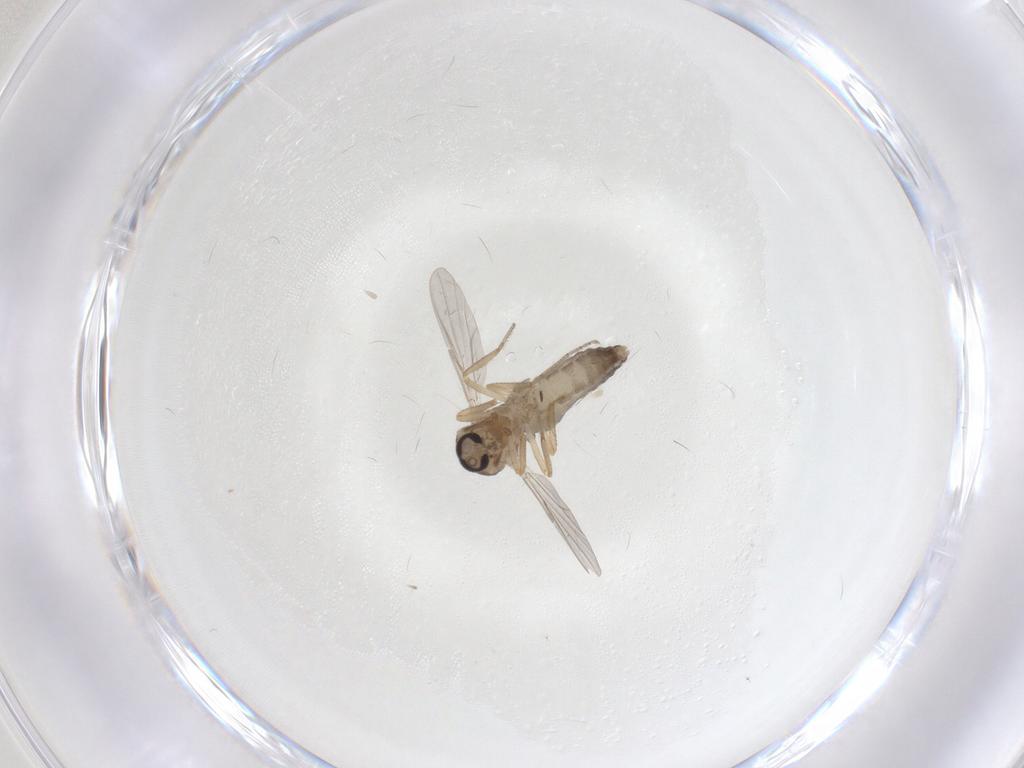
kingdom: Animalia
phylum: Arthropoda
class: Insecta
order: Diptera
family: Ceratopogonidae
